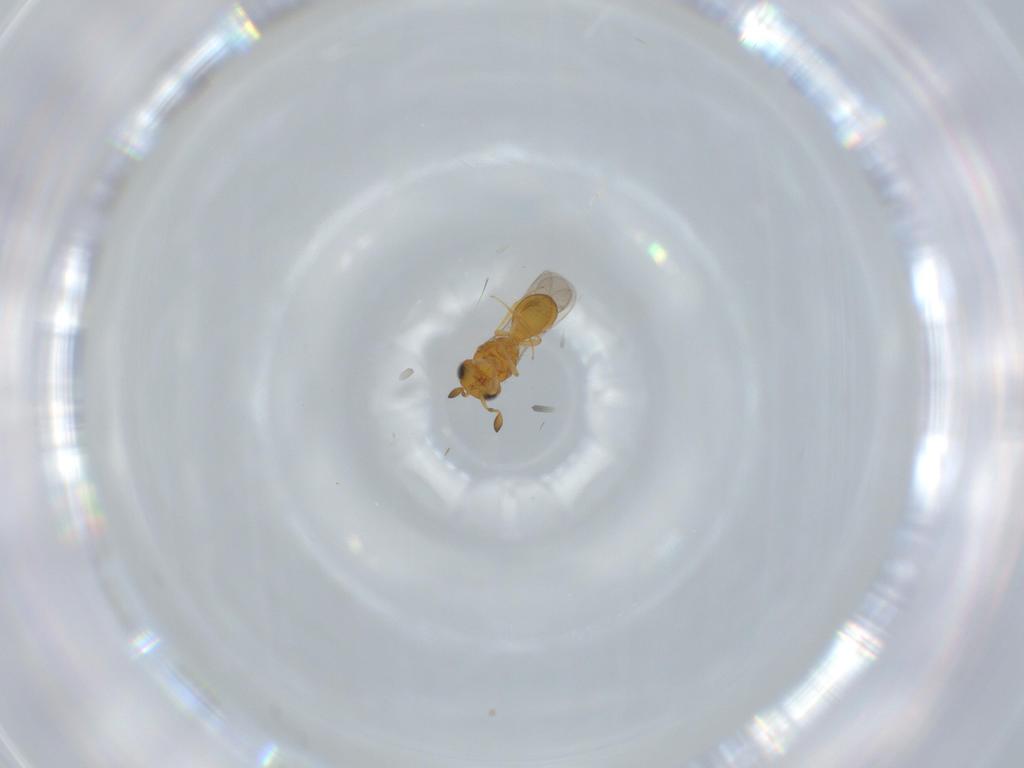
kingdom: Animalia
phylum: Arthropoda
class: Insecta
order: Hymenoptera
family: Scelionidae
